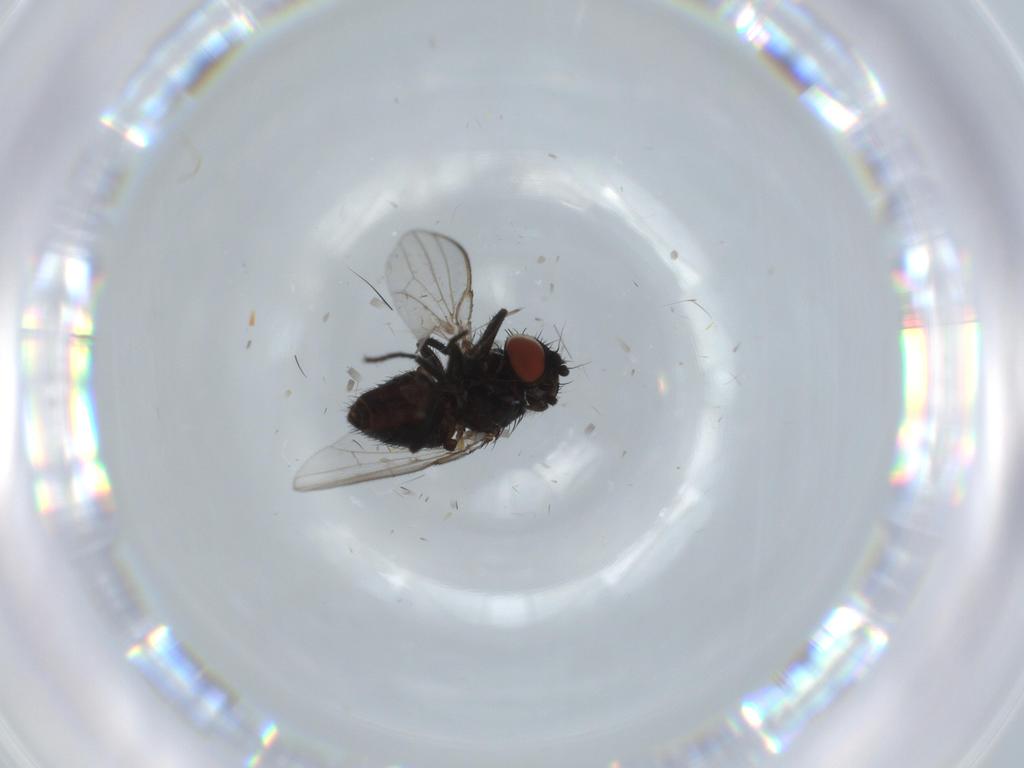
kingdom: Animalia
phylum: Arthropoda
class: Insecta
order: Diptera
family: Milichiidae
